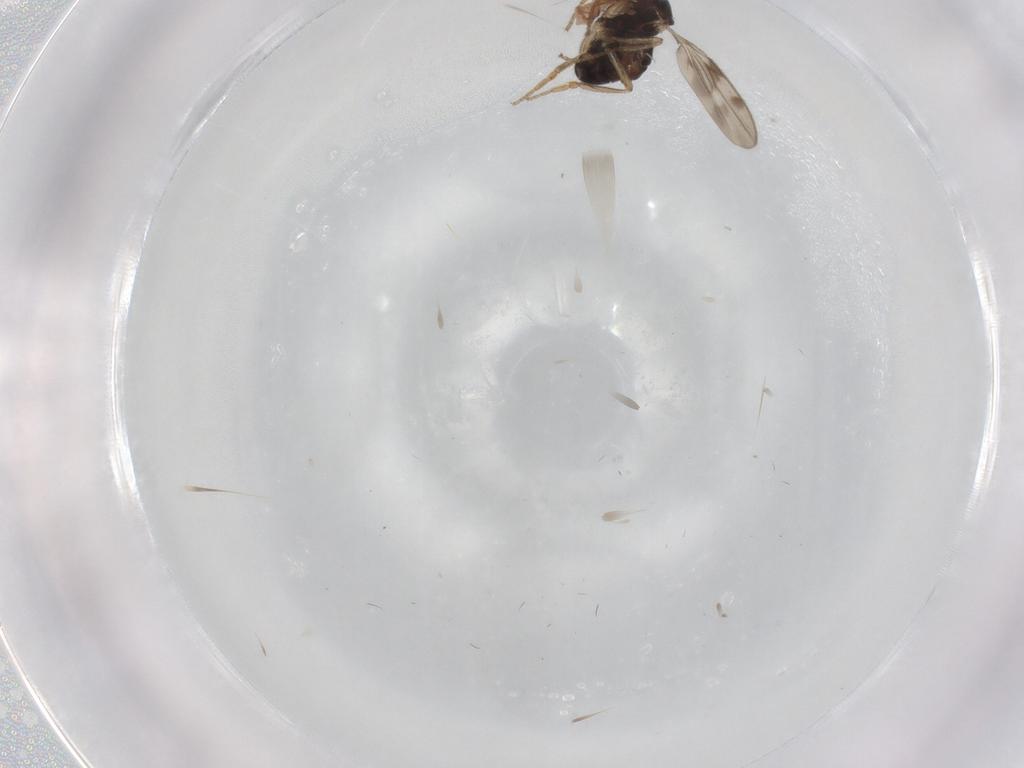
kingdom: Animalia
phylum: Arthropoda
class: Insecta
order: Diptera
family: Sphaeroceridae
